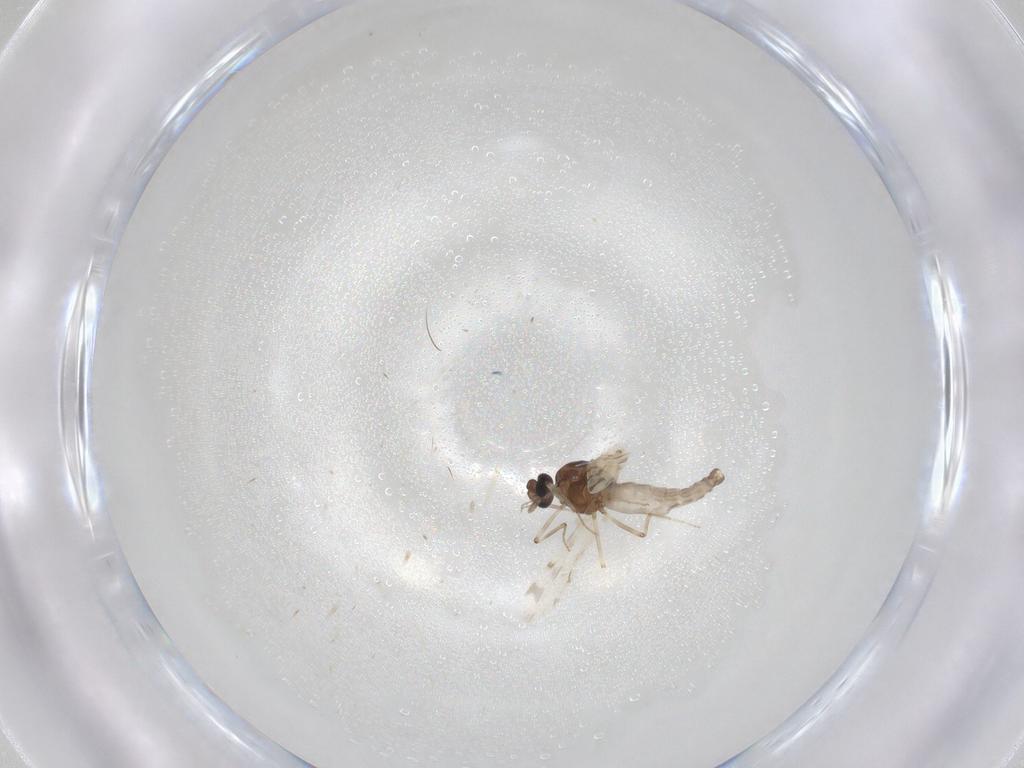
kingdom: Animalia
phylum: Arthropoda
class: Insecta
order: Diptera
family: Ceratopogonidae
